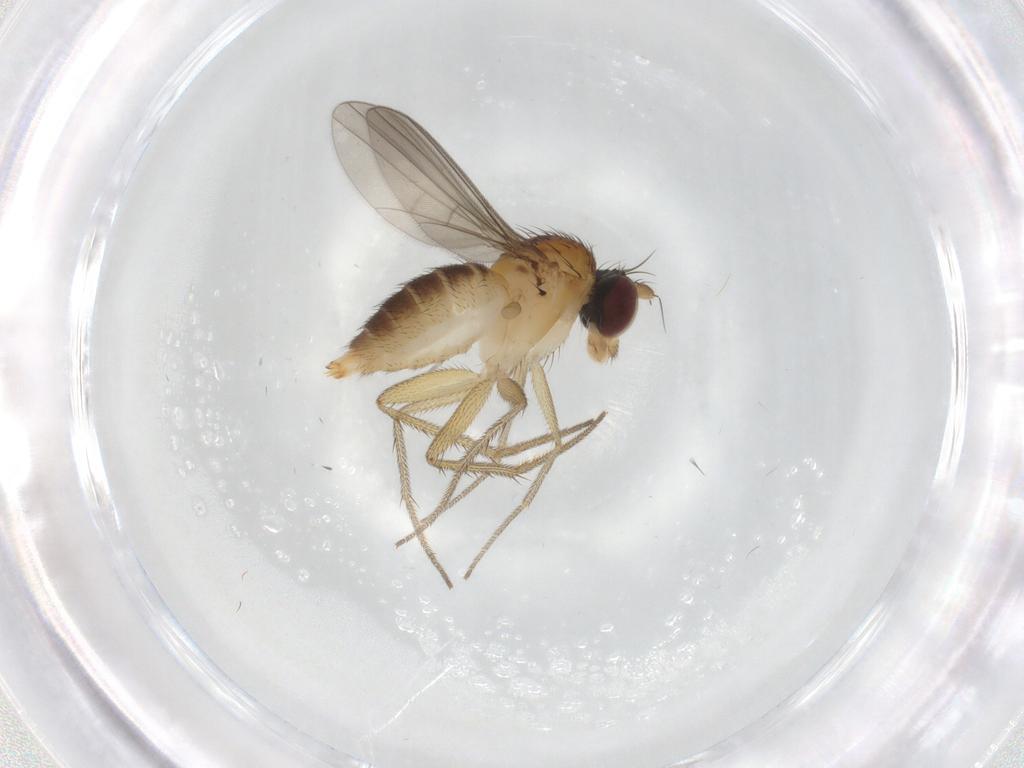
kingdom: Animalia
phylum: Arthropoda
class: Insecta
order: Diptera
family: Dolichopodidae
